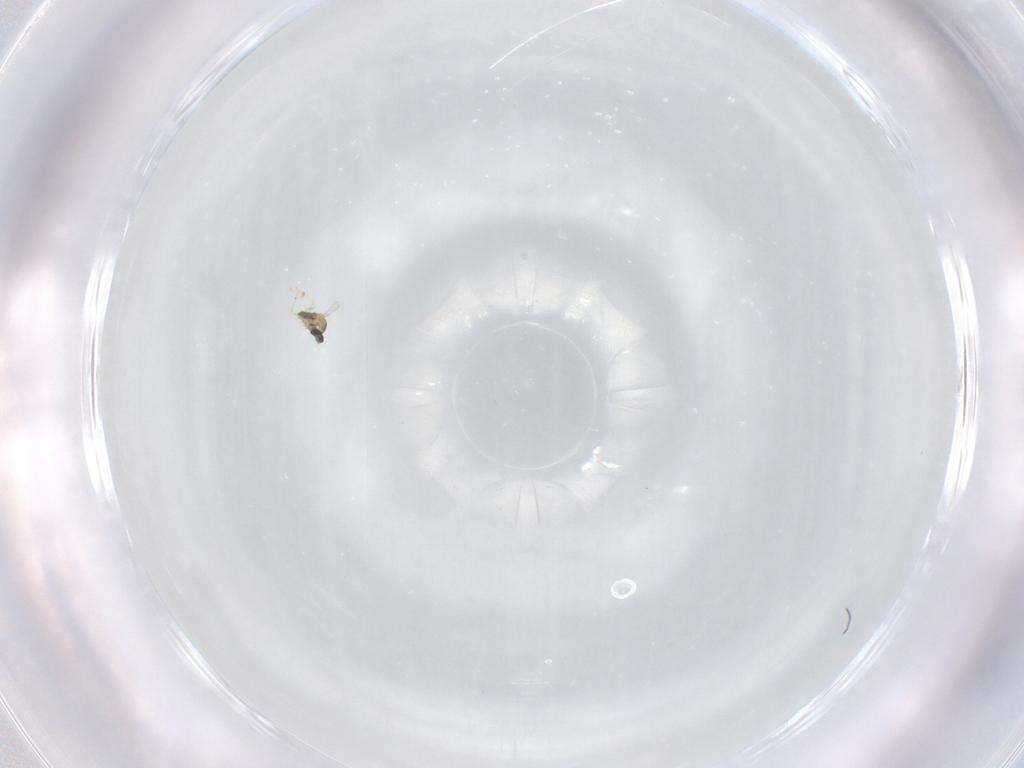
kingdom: Animalia
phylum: Arthropoda
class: Insecta
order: Diptera
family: Cecidomyiidae
